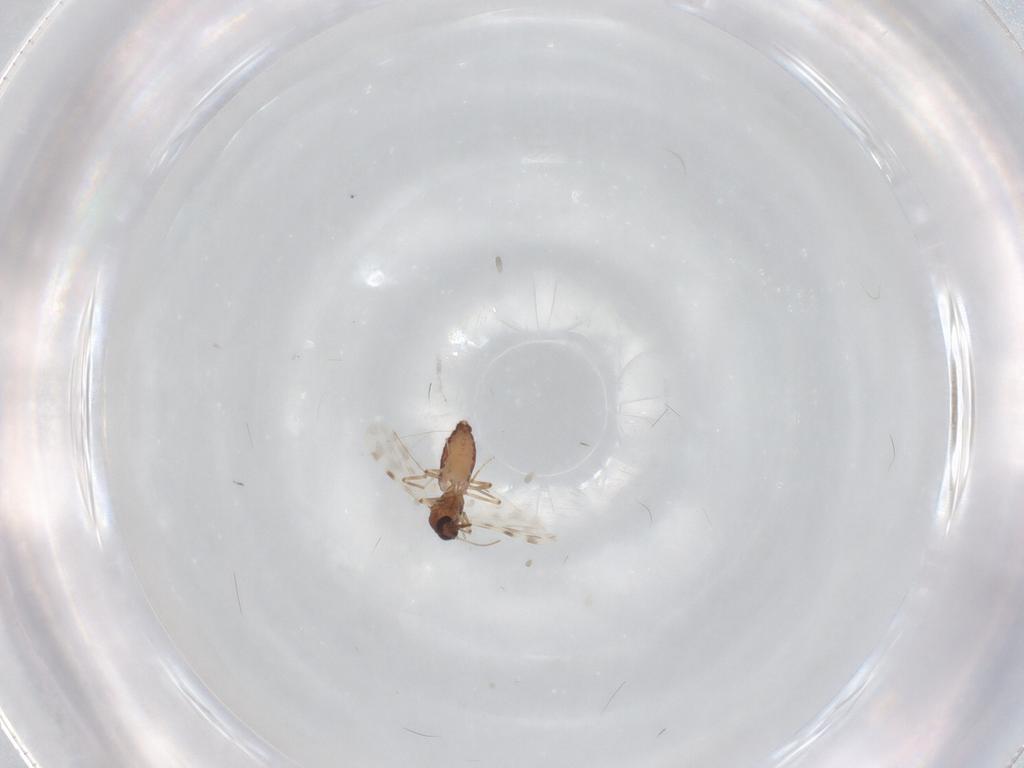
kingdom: Animalia
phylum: Arthropoda
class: Insecta
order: Diptera
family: Ceratopogonidae
